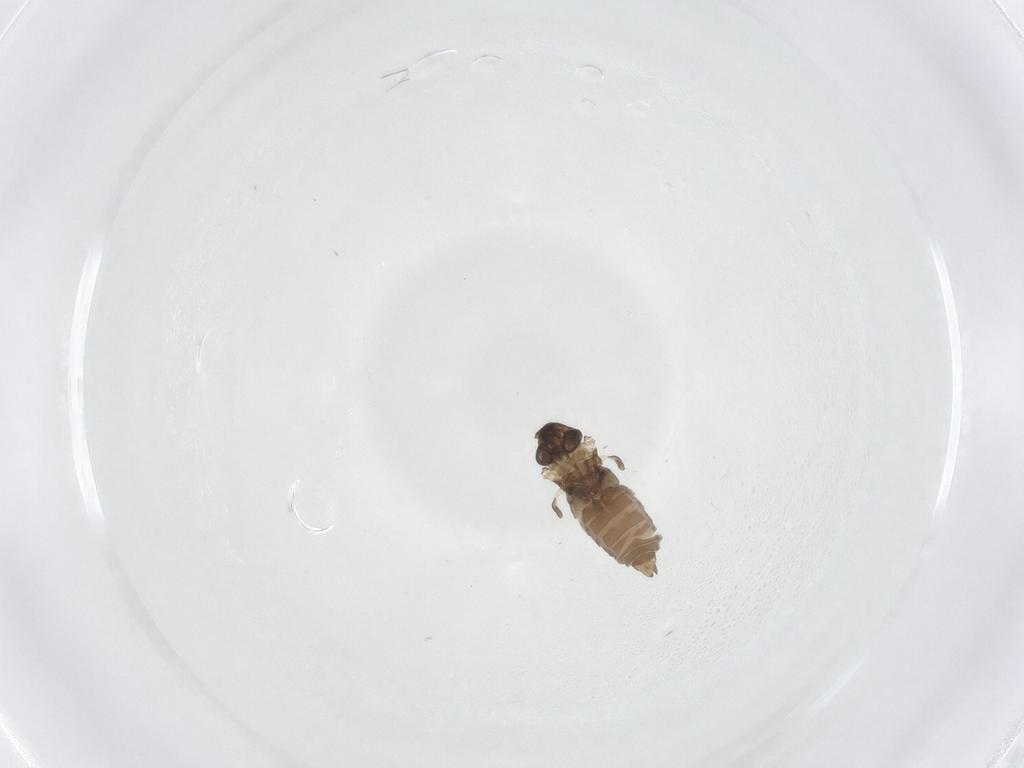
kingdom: Animalia
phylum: Arthropoda
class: Insecta
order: Diptera
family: Psychodidae
